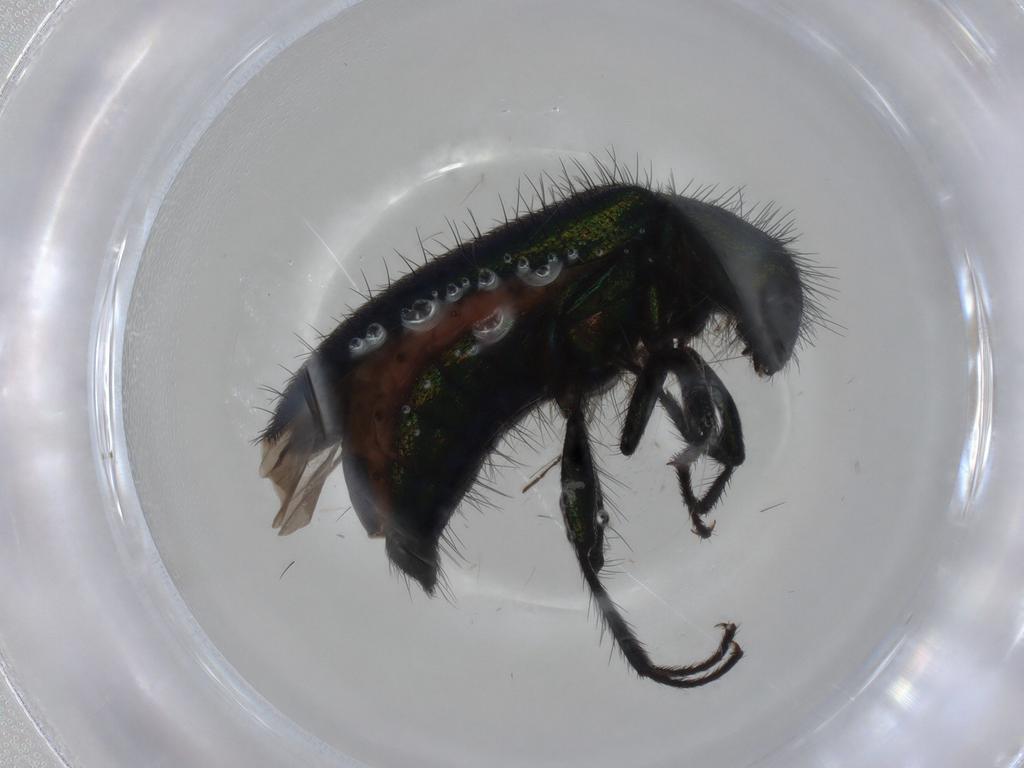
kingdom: Animalia
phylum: Arthropoda
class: Insecta
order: Coleoptera
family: Melyridae
